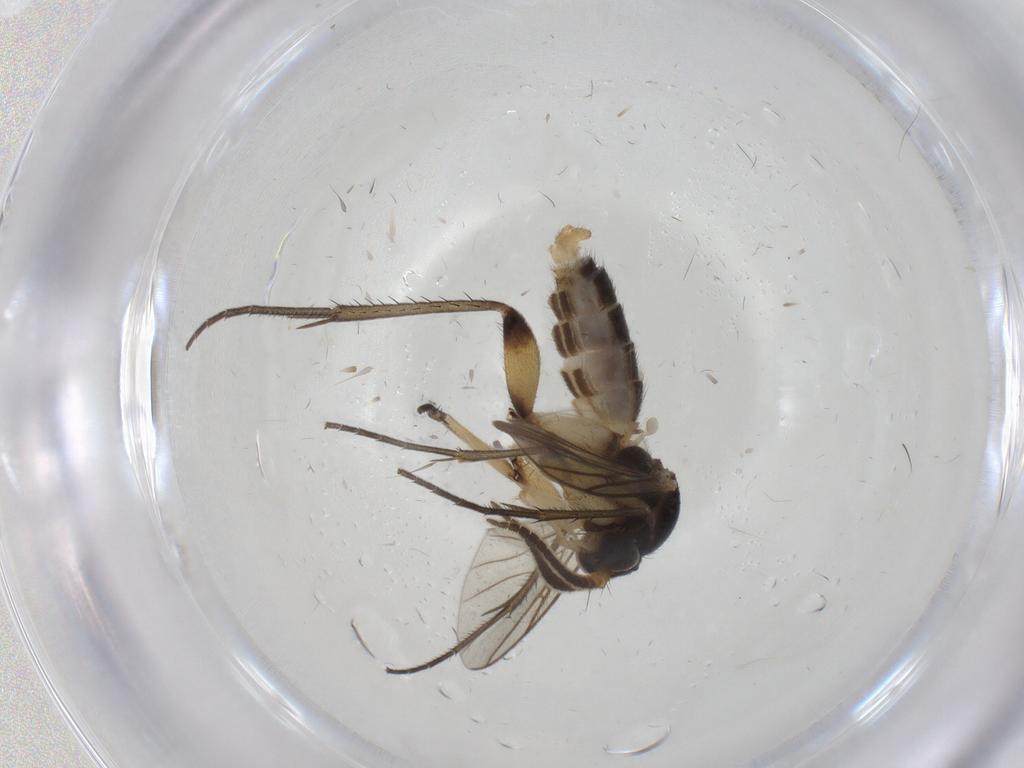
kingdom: Animalia
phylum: Arthropoda
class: Insecta
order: Diptera
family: Mycetophilidae
